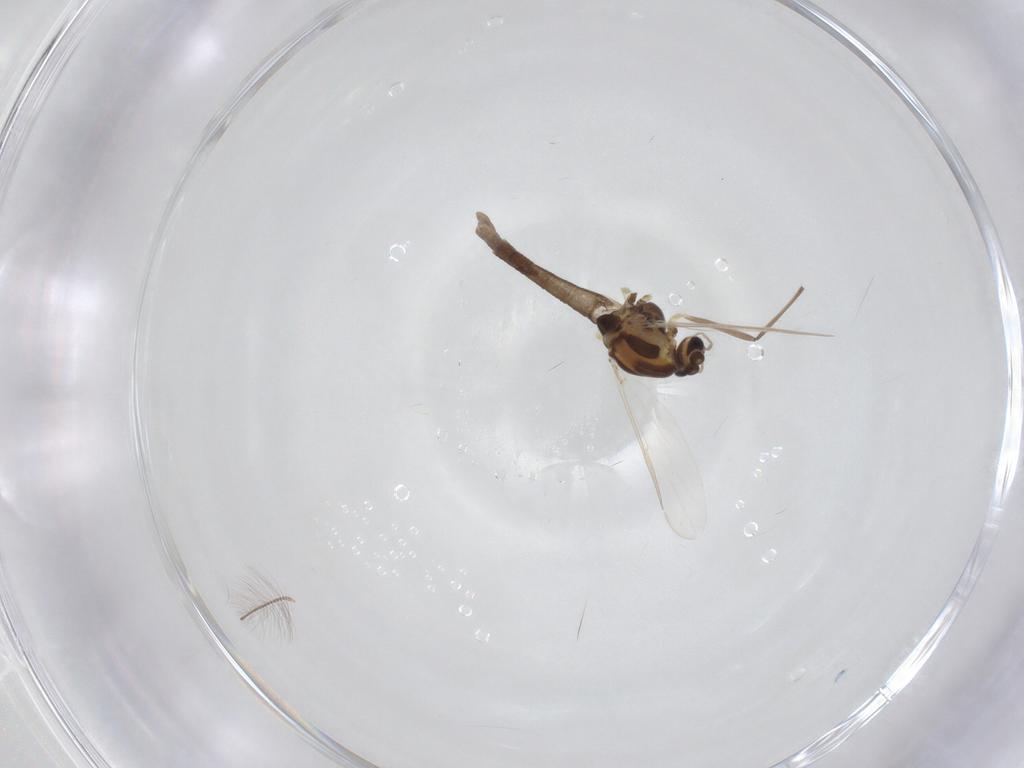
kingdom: Animalia
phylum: Arthropoda
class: Insecta
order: Diptera
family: Chironomidae
